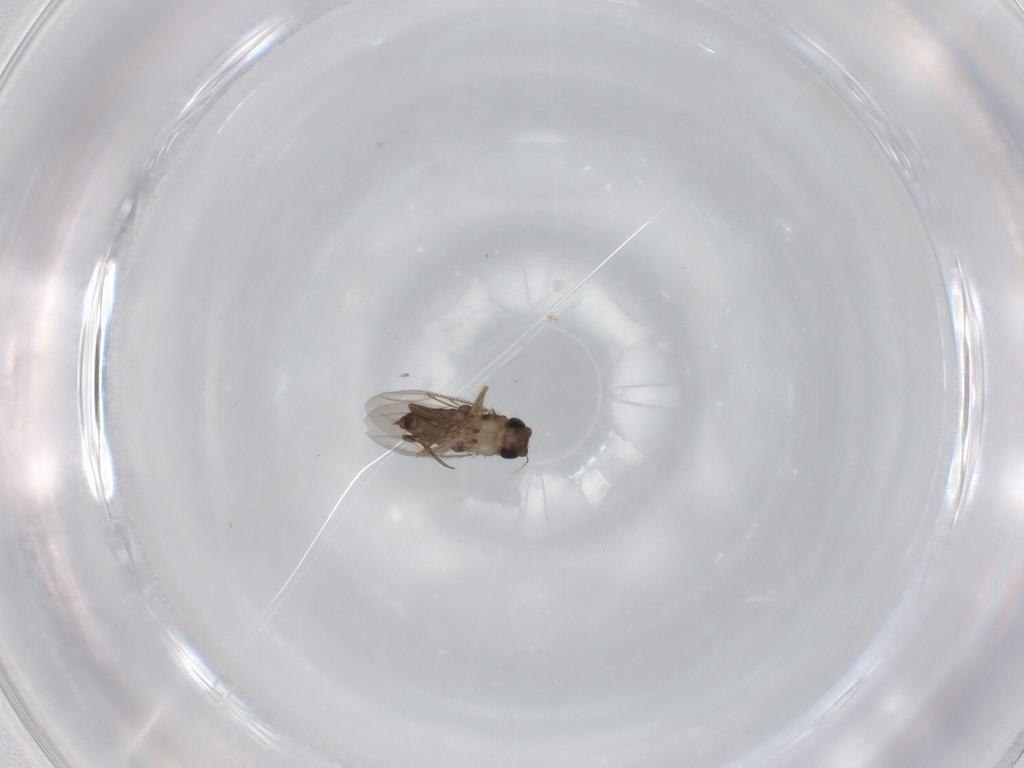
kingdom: Animalia
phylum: Arthropoda
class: Insecta
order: Diptera
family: Phoridae
